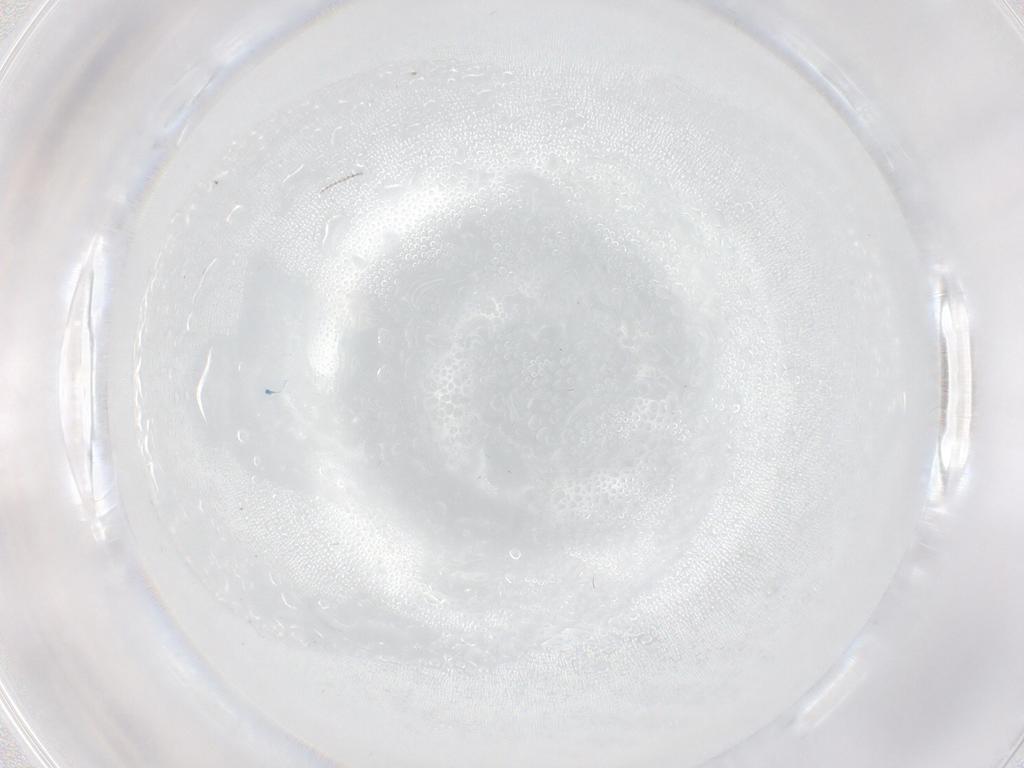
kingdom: Animalia
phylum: Arthropoda
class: Insecta
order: Diptera
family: Cecidomyiidae
